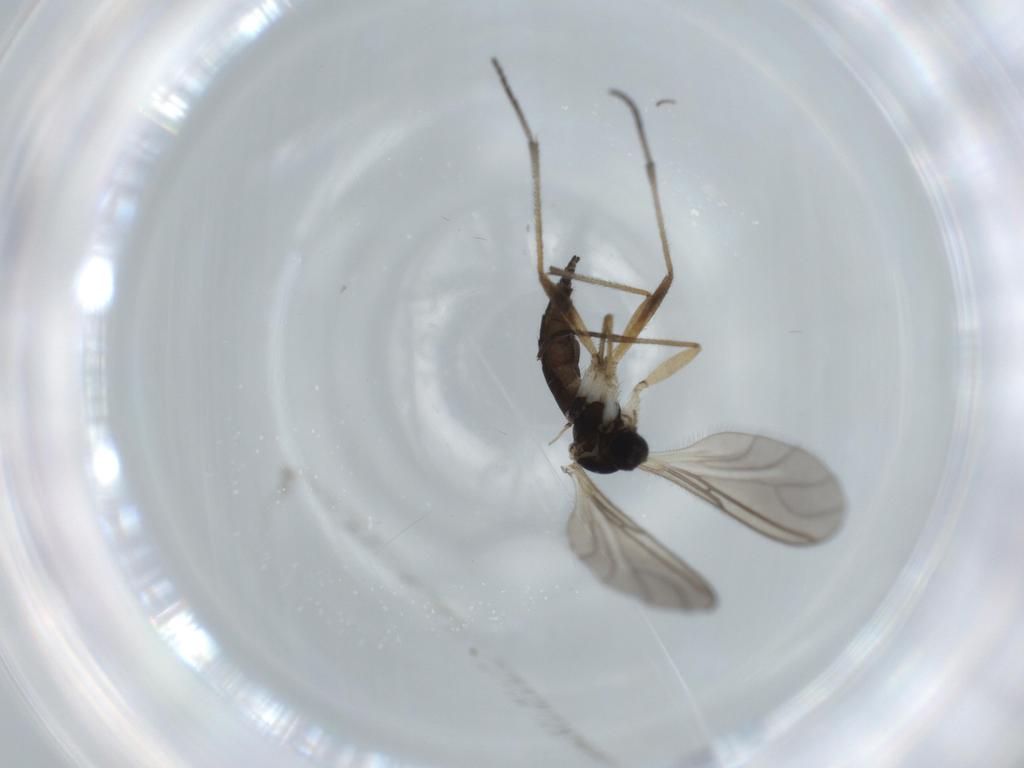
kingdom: Animalia
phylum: Arthropoda
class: Insecta
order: Diptera
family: Sciaridae
